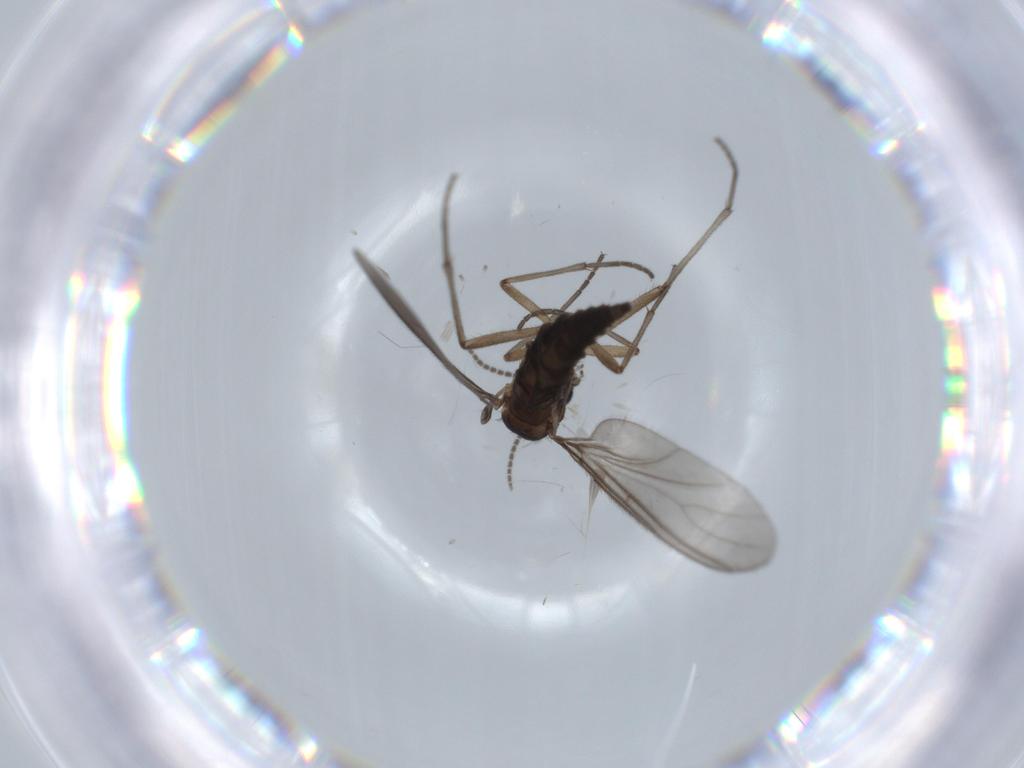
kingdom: Animalia
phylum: Arthropoda
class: Insecta
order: Diptera
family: Sciaridae
